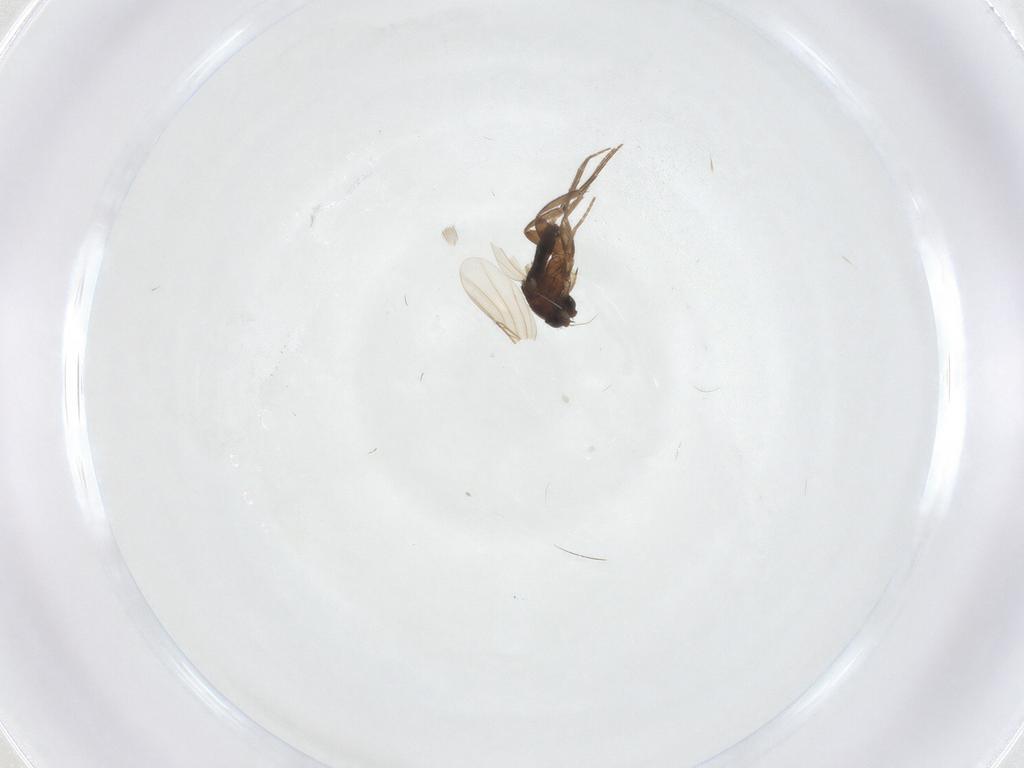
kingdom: Animalia
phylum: Arthropoda
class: Insecta
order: Diptera
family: Phoridae
